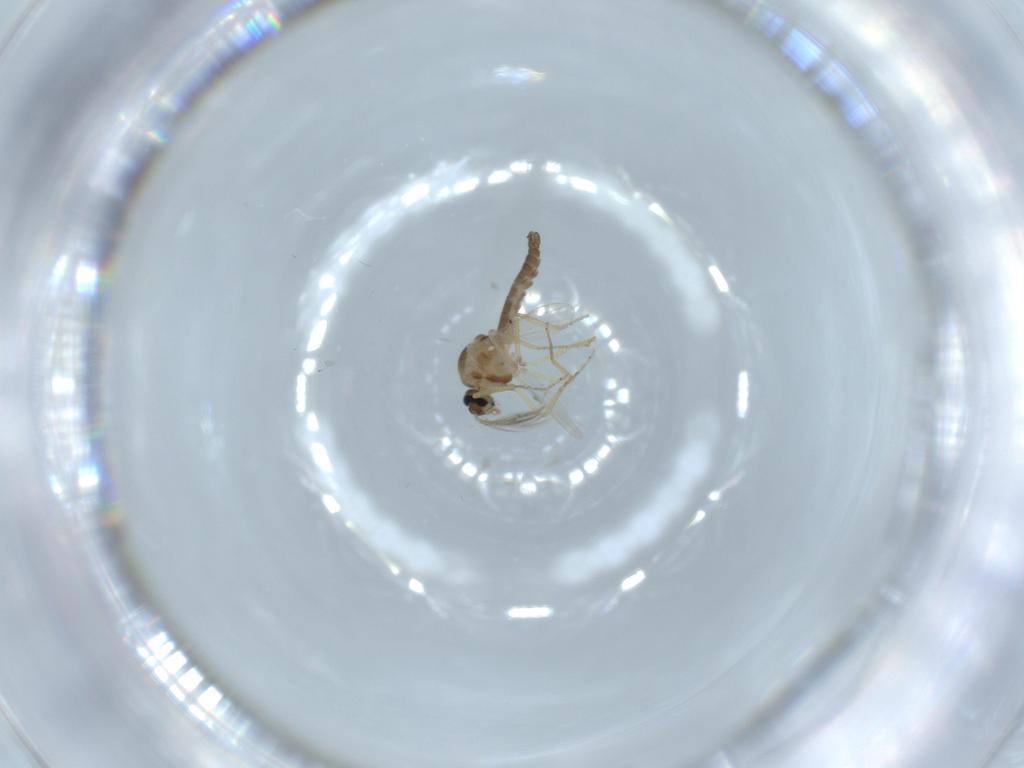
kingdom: Animalia
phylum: Arthropoda
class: Insecta
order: Diptera
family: Ceratopogonidae
